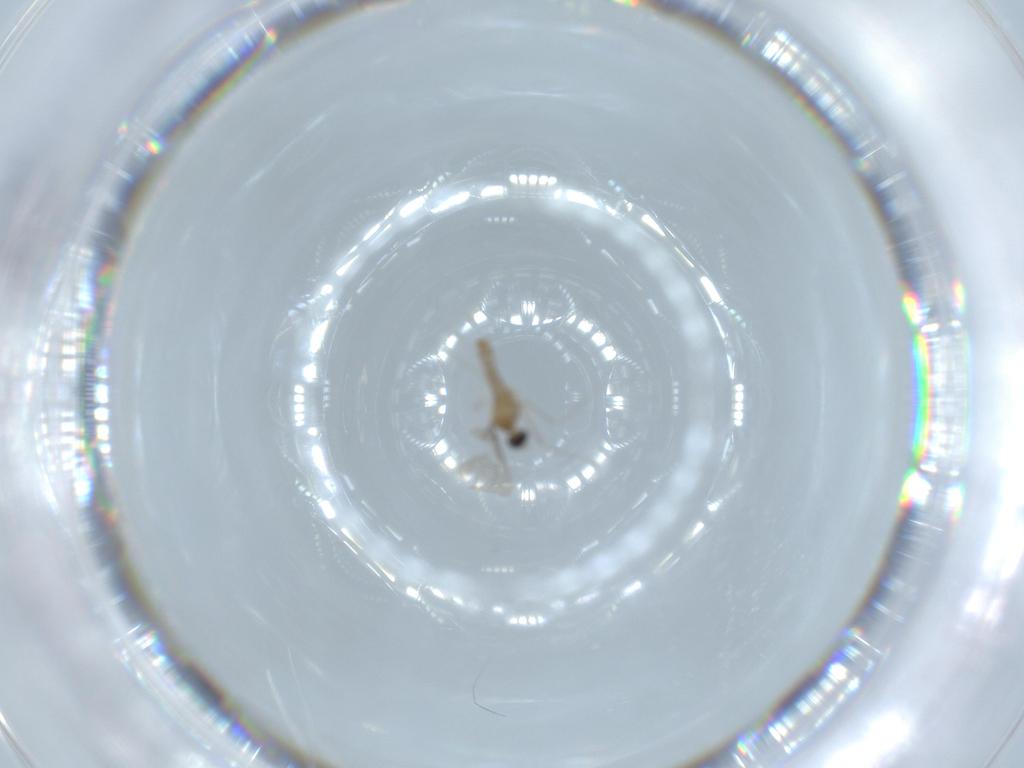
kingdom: Animalia
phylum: Arthropoda
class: Insecta
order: Diptera
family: Cecidomyiidae
